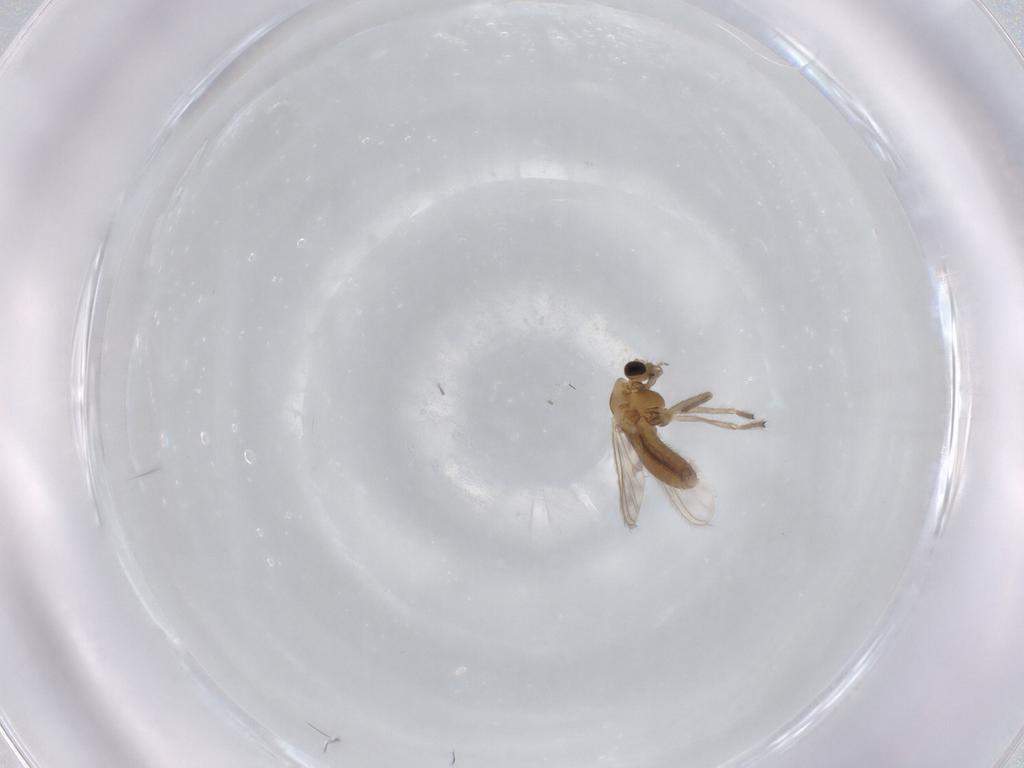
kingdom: Animalia
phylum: Arthropoda
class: Insecta
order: Diptera
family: Chironomidae
